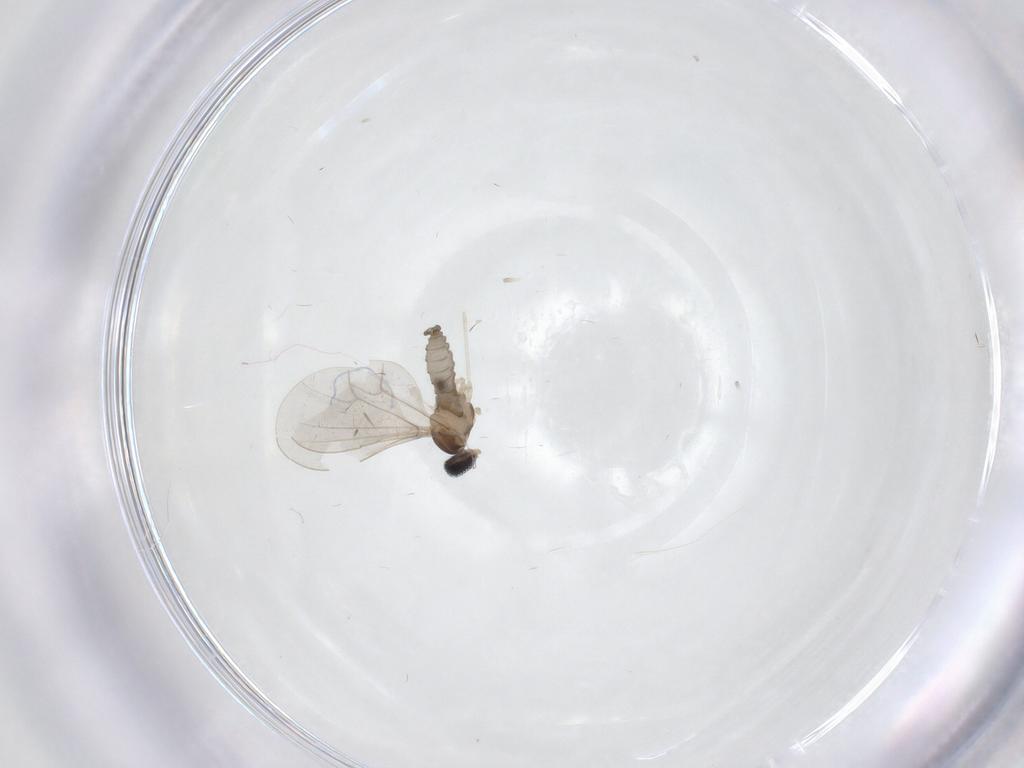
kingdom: Animalia
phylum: Arthropoda
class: Insecta
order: Diptera
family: Cecidomyiidae
